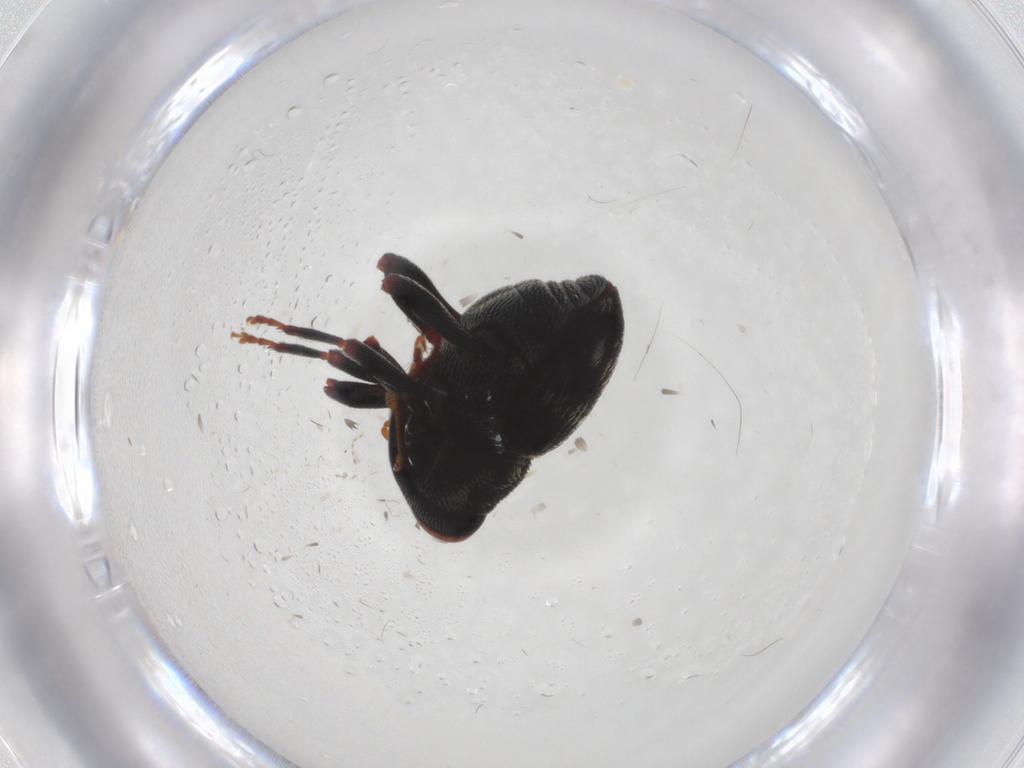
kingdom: Animalia
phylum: Arthropoda
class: Insecta
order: Coleoptera
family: Curculionidae
